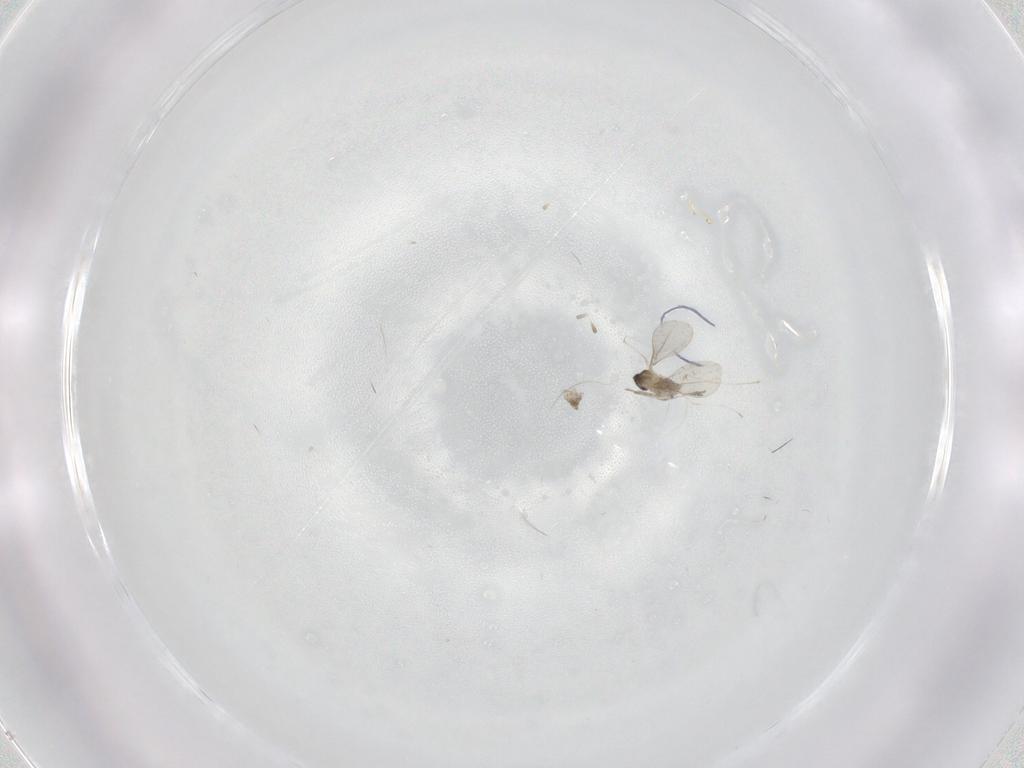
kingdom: Animalia
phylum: Arthropoda
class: Insecta
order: Diptera
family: Cecidomyiidae
